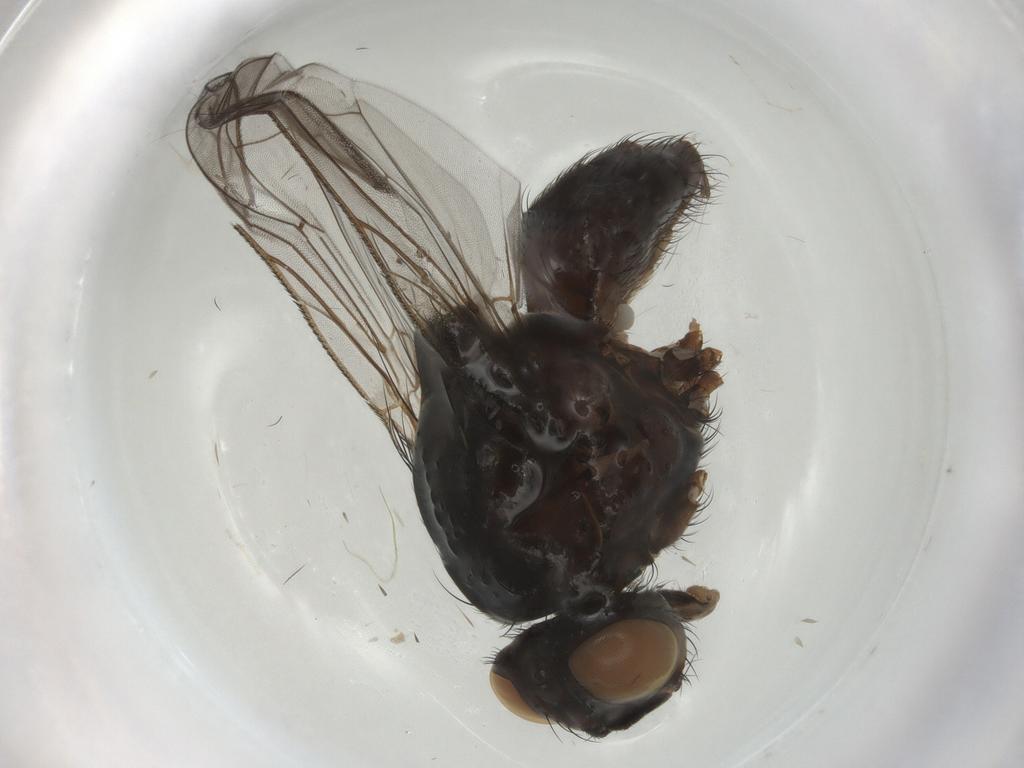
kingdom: Animalia
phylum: Arthropoda
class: Insecta
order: Diptera
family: Anthomyiidae
